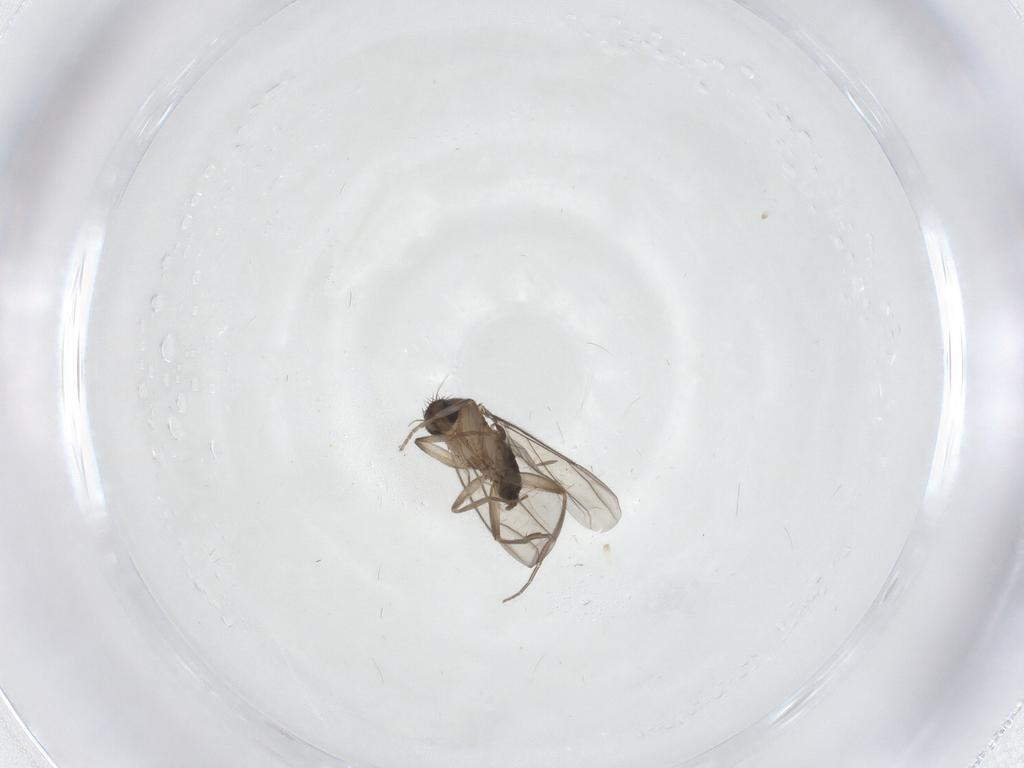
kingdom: Animalia
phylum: Arthropoda
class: Insecta
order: Diptera
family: Phoridae
